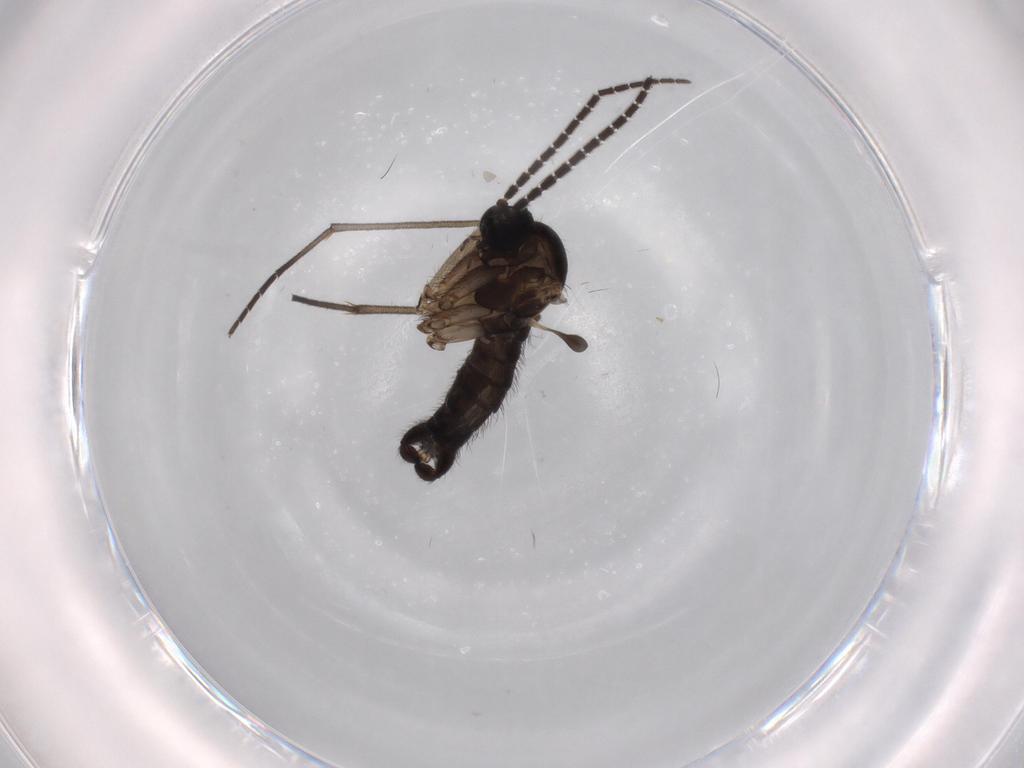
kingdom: Animalia
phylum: Arthropoda
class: Insecta
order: Diptera
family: Sciaridae
